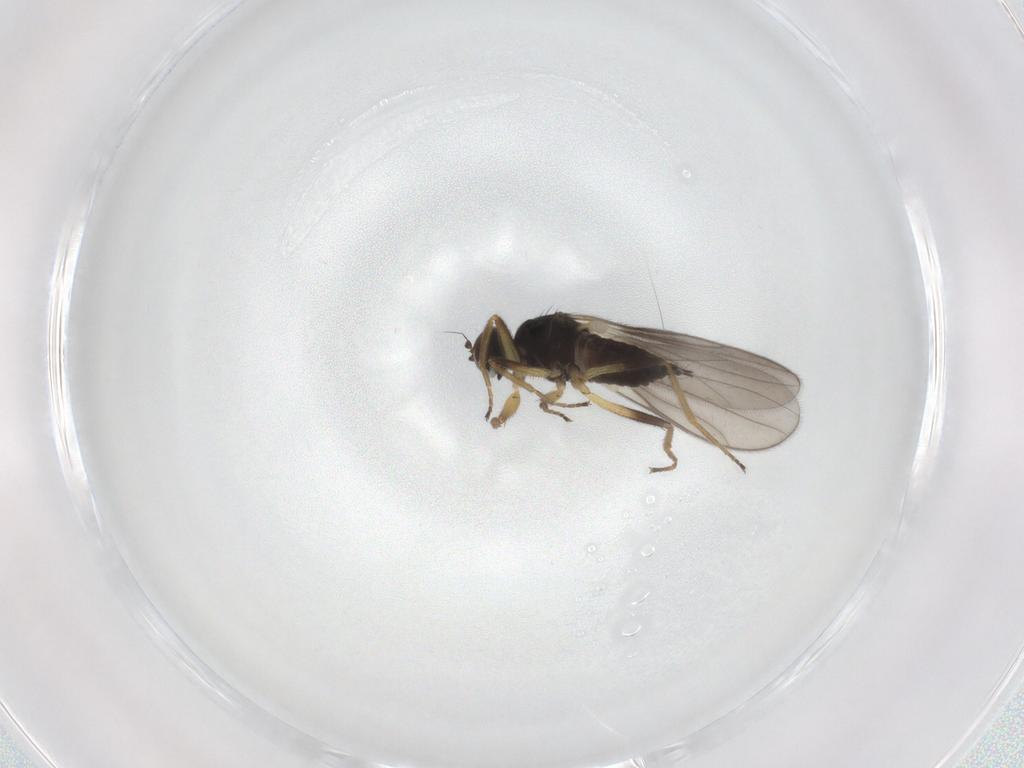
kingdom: Animalia
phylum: Arthropoda
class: Insecta
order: Diptera
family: Hybotidae
